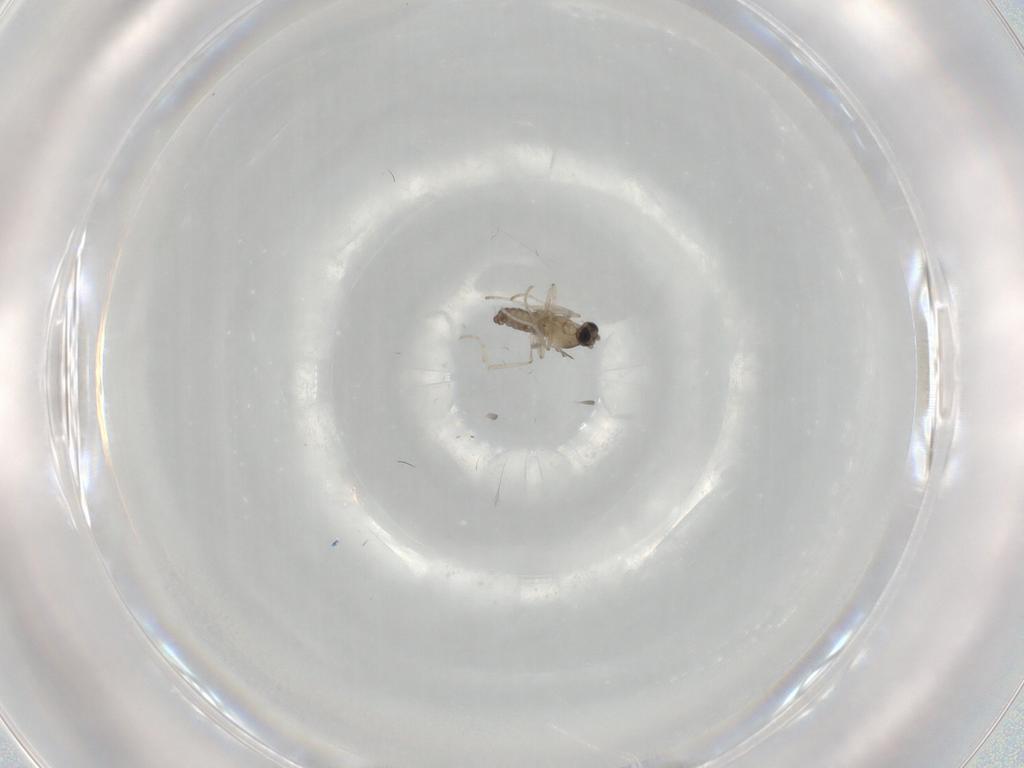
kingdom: Animalia
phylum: Arthropoda
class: Insecta
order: Diptera
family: Cecidomyiidae
